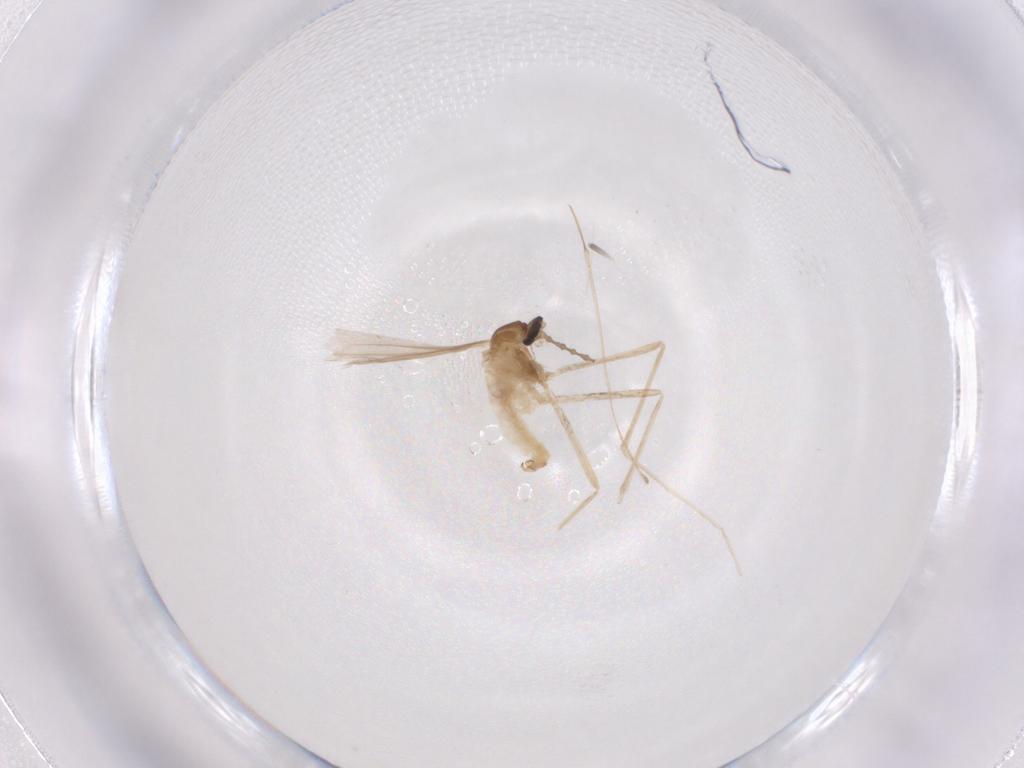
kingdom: Animalia
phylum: Arthropoda
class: Insecta
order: Diptera
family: Cecidomyiidae
